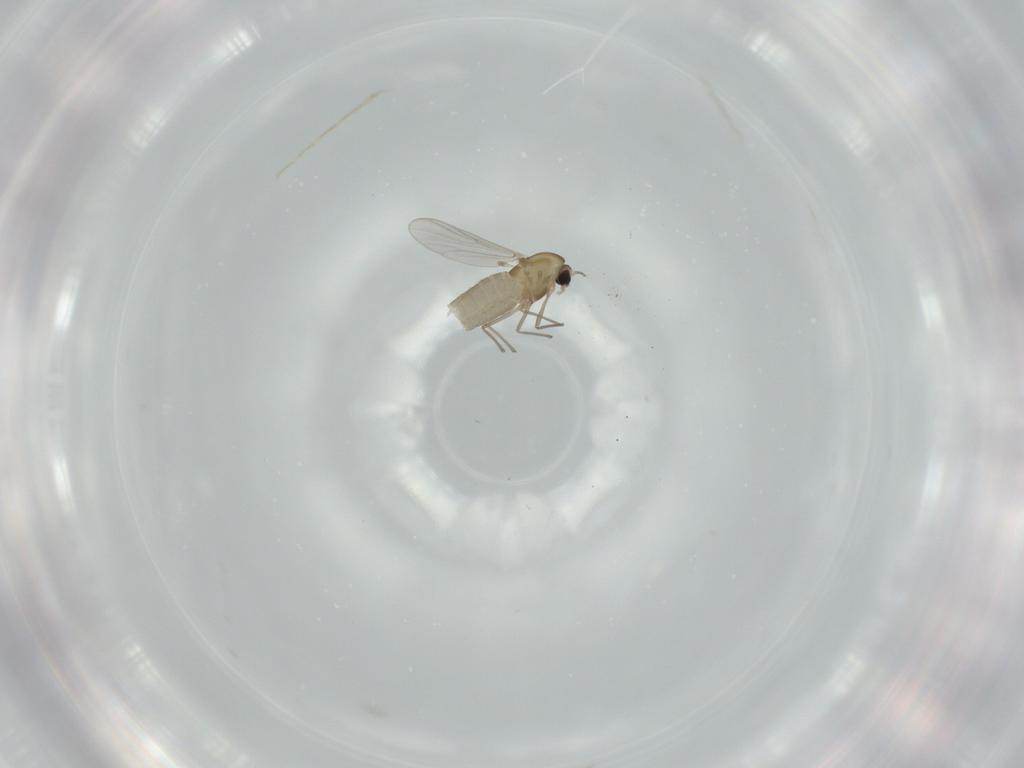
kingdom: Animalia
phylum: Arthropoda
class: Insecta
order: Diptera
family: Chironomidae
